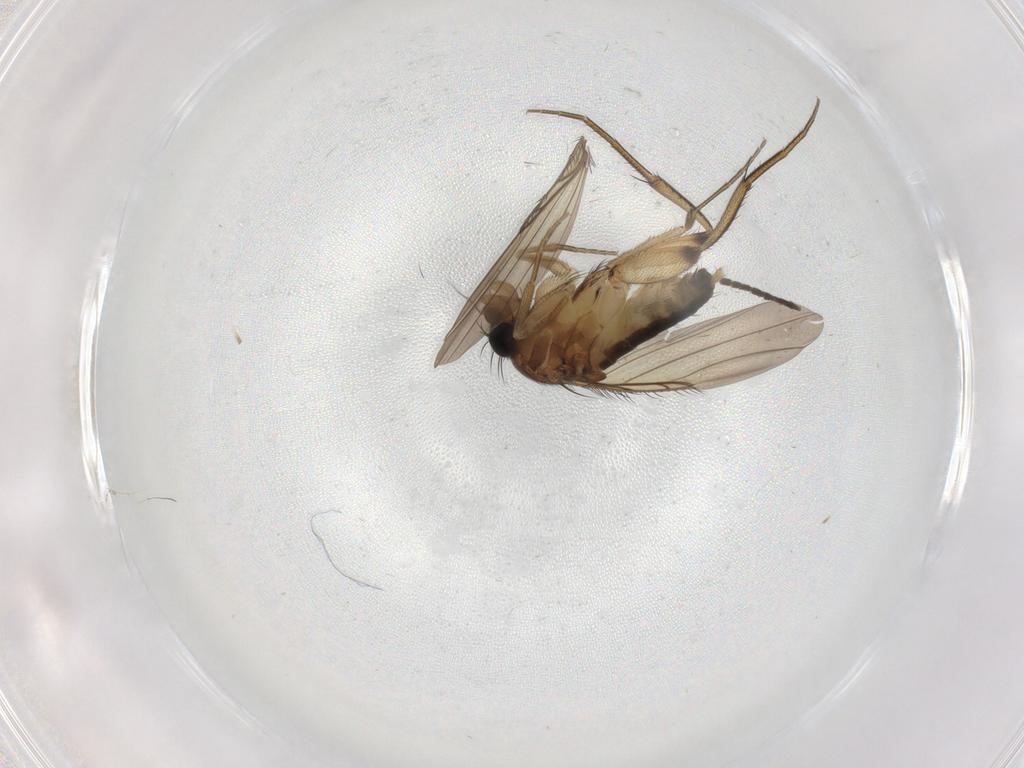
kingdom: Animalia
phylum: Arthropoda
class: Insecta
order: Diptera
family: Phoridae
